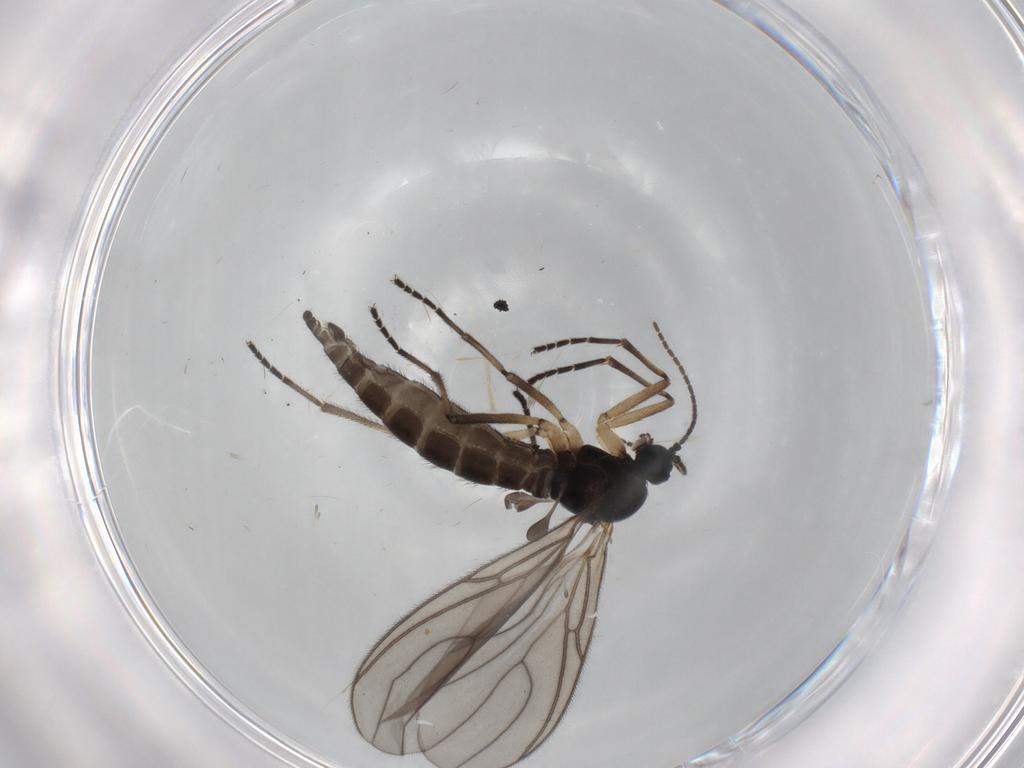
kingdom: Animalia
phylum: Arthropoda
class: Insecta
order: Diptera
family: Sciaridae
